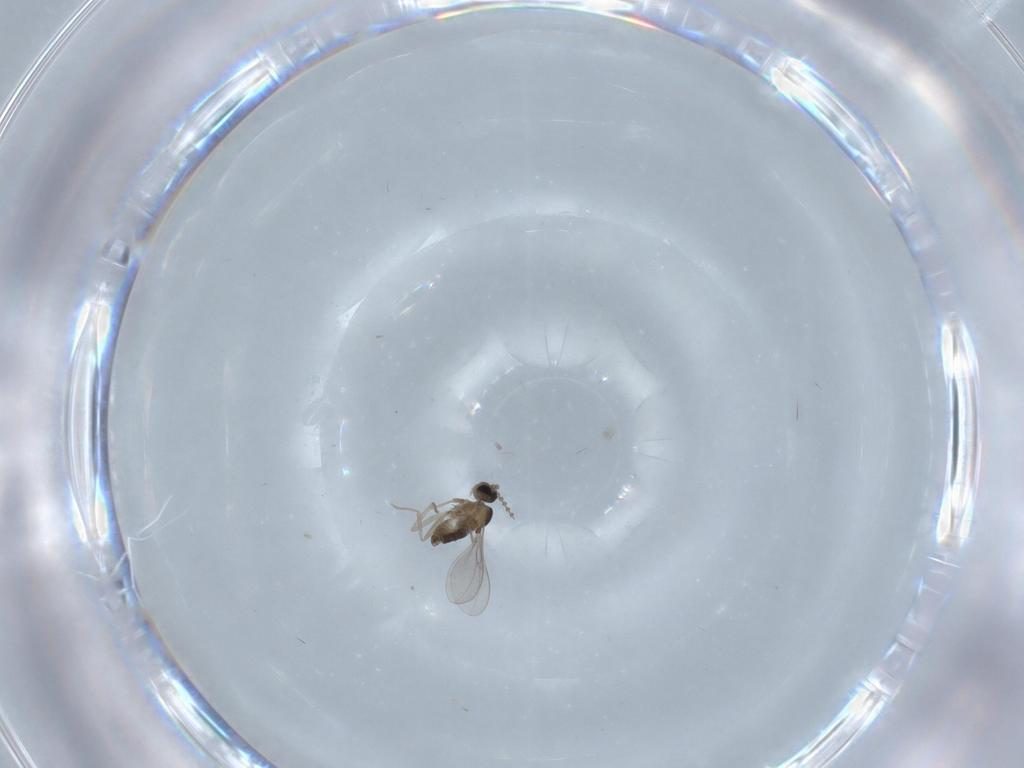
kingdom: Animalia
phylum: Arthropoda
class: Insecta
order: Diptera
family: Cecidomyiidae
